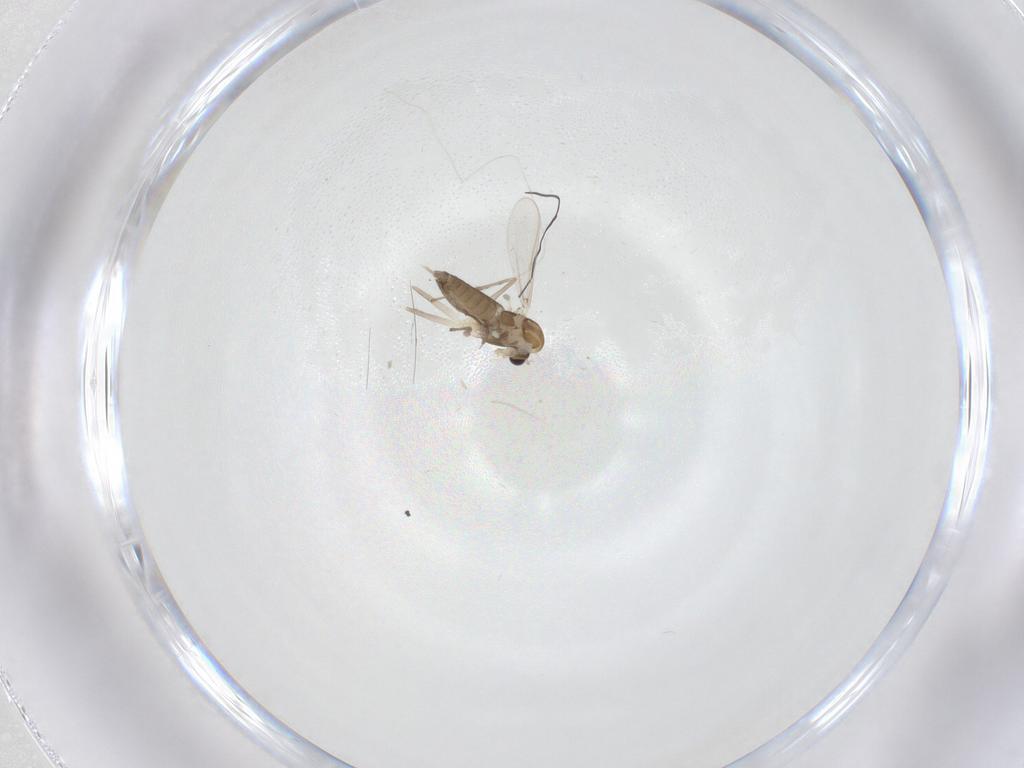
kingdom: Animalia
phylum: Arthropoda
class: Insecta
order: Diptera
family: Chironomidae
